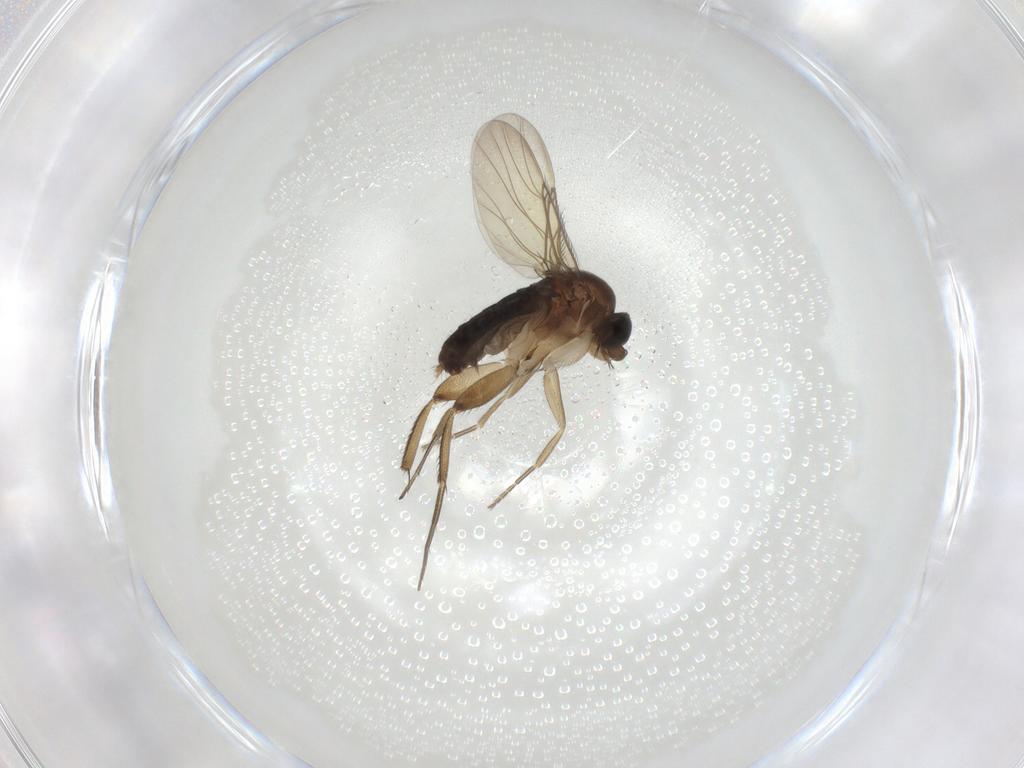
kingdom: Animalia
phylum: Arthropoda
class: Insecta
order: Diptera
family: Phoridae
